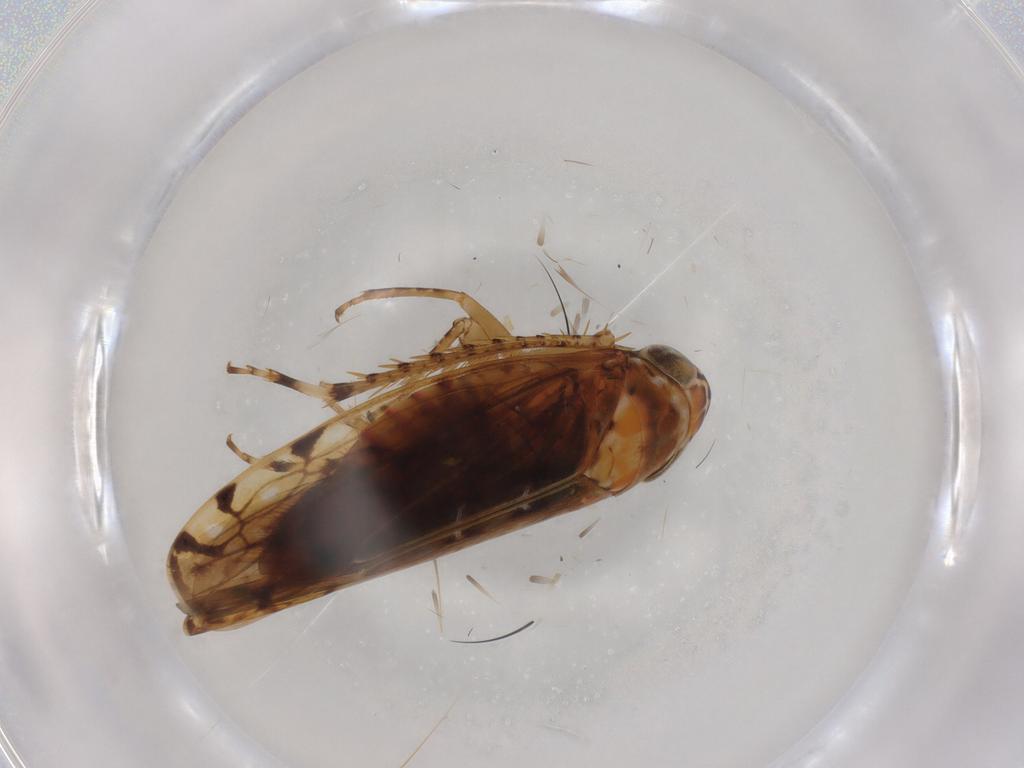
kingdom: Animalia
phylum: Arthropoda
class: Insecta
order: Hemiptera
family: Cicadellidae
